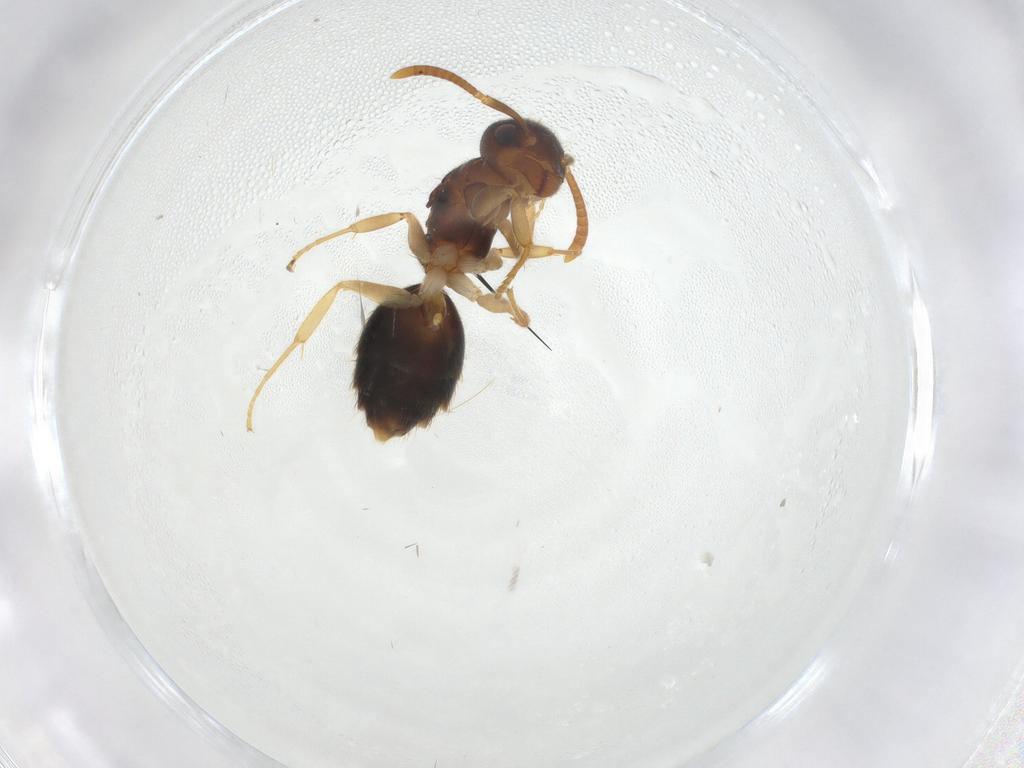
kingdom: Animalia
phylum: Arthropoda
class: Insecta
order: Hymenoptera
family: Formicidae
